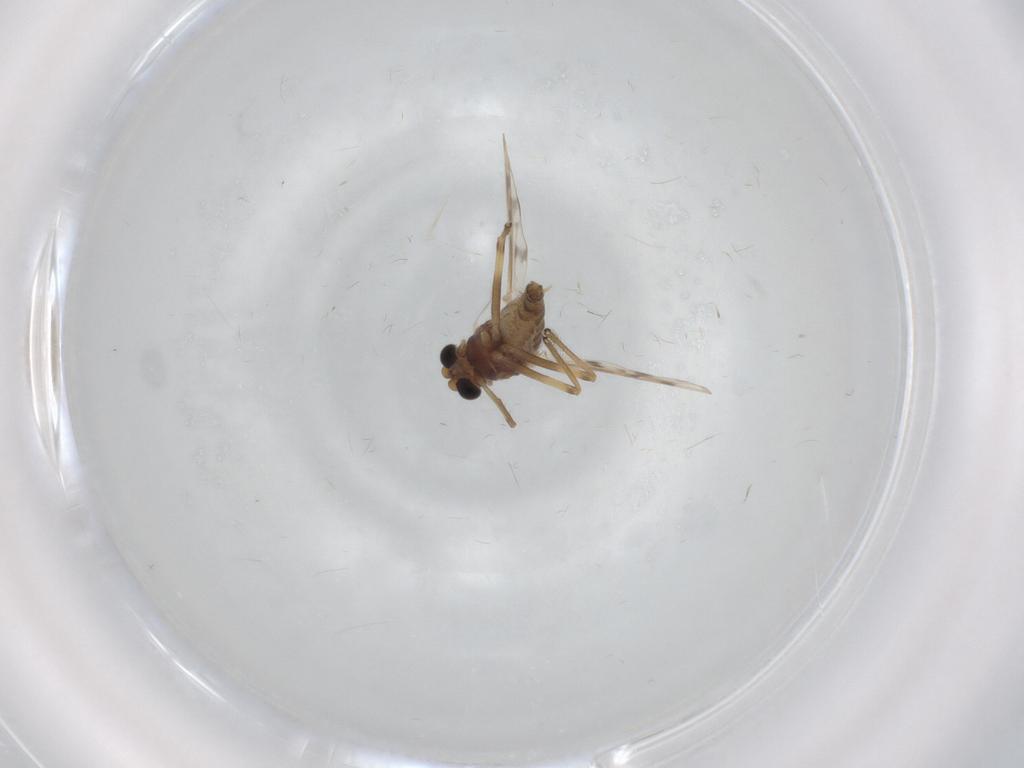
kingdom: Animalia
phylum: Arthropoda
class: Insecta
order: Diptera
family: Chironomidae
